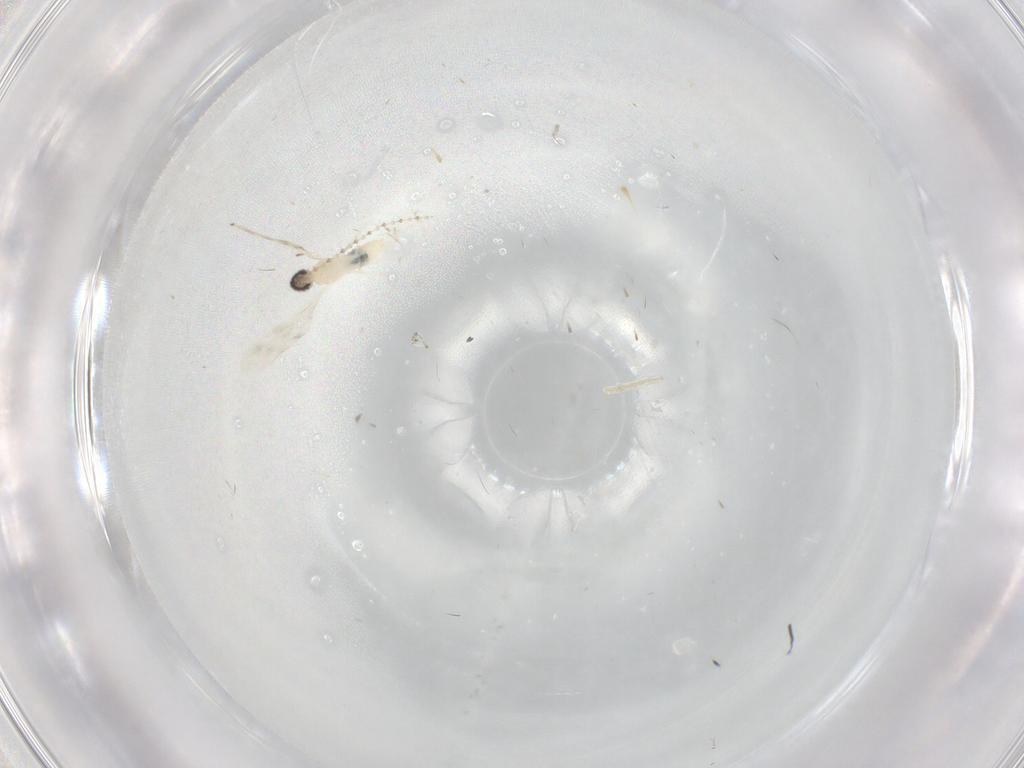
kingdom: Animalia
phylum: Arthropoda
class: Insecta
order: Diptera
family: Cecidomyiidae
